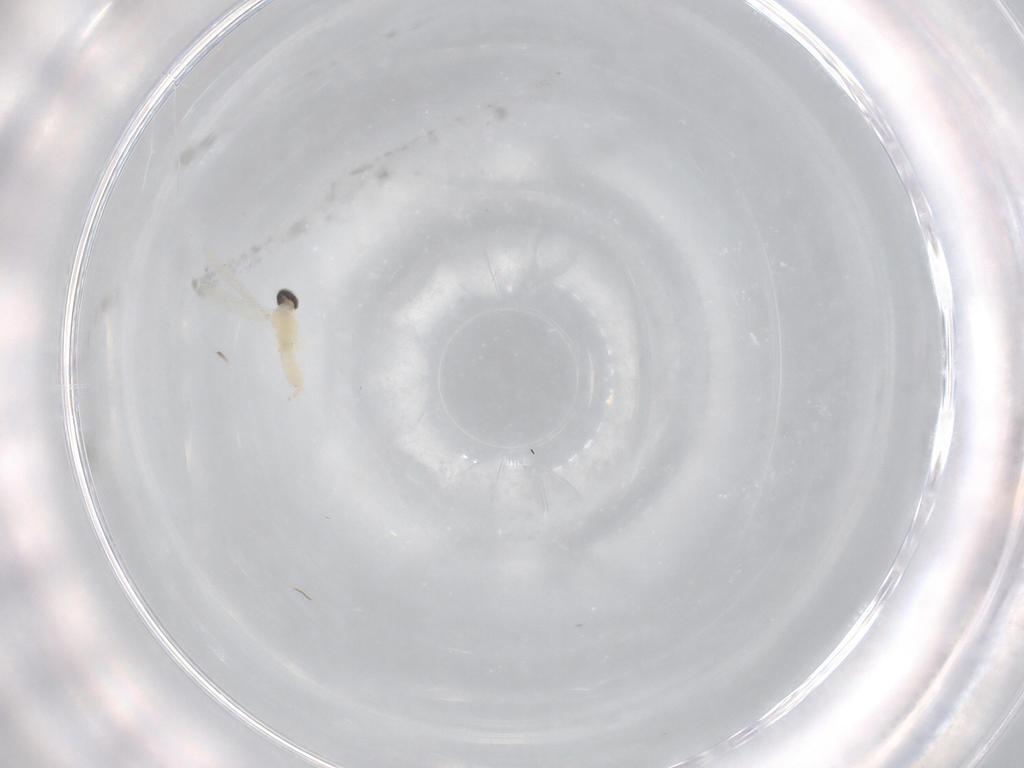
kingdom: Animalia
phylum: Arthropoda
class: Insecta
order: Diptera
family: Cecidomyiidae
